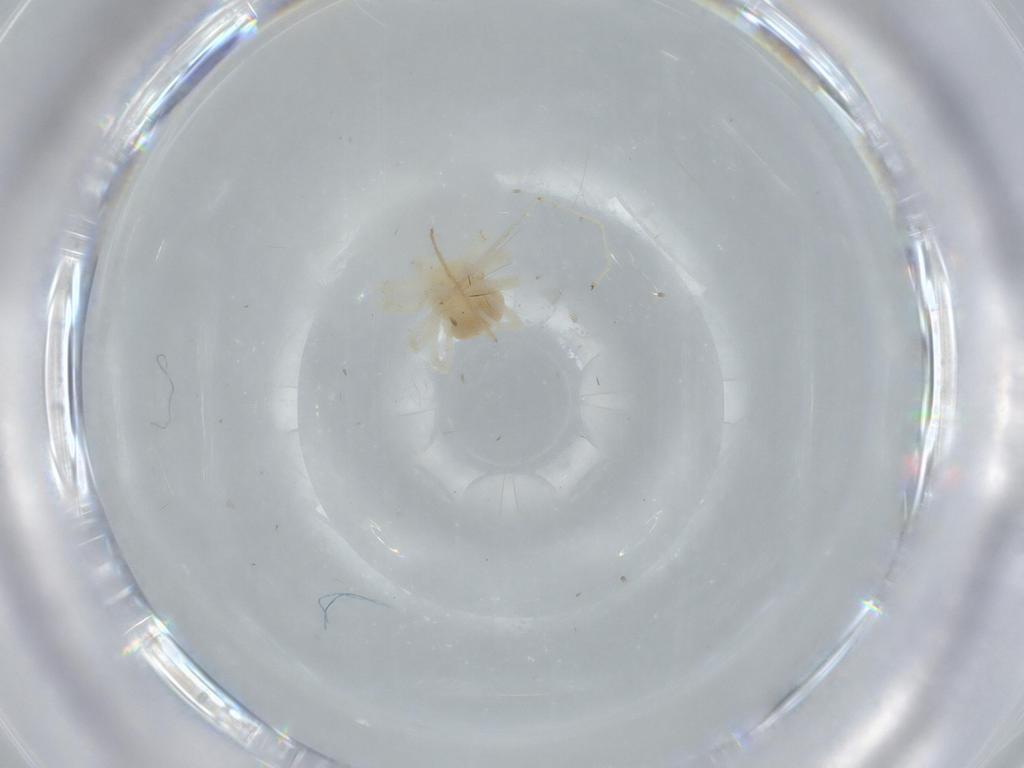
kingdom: Animalia
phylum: Arthropoda
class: Arachnida
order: Trombidiformes
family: Anystidae
